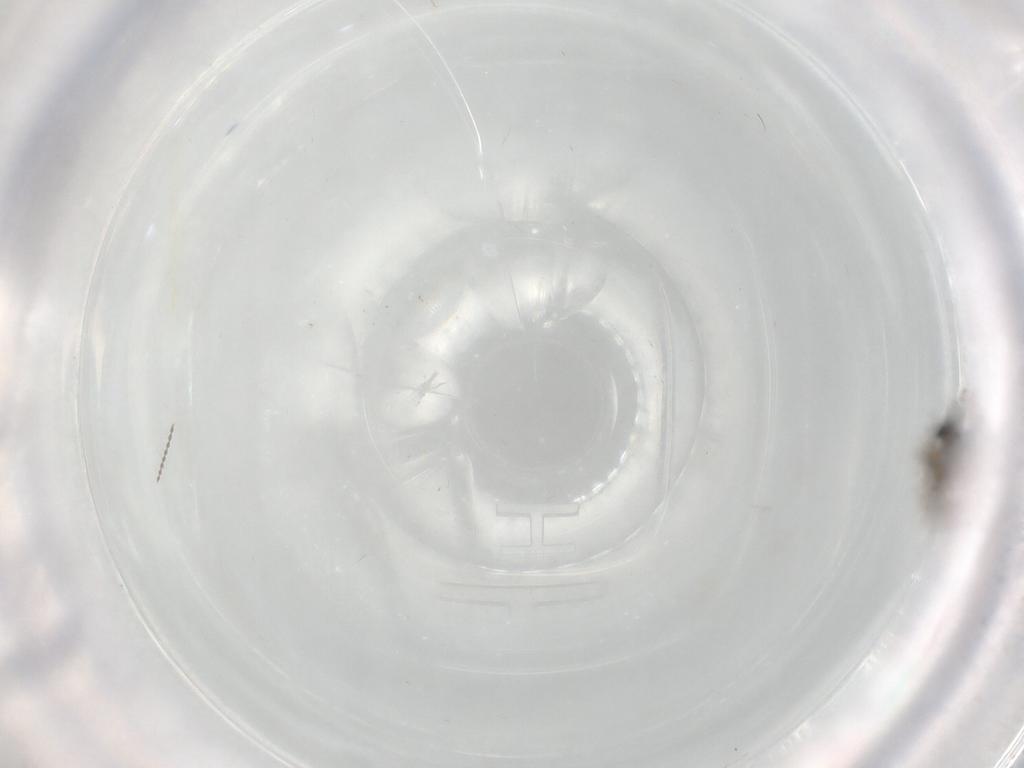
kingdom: Animalia
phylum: Arthropoda
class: Insecta
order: Diptera
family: Cecidomyiidae
